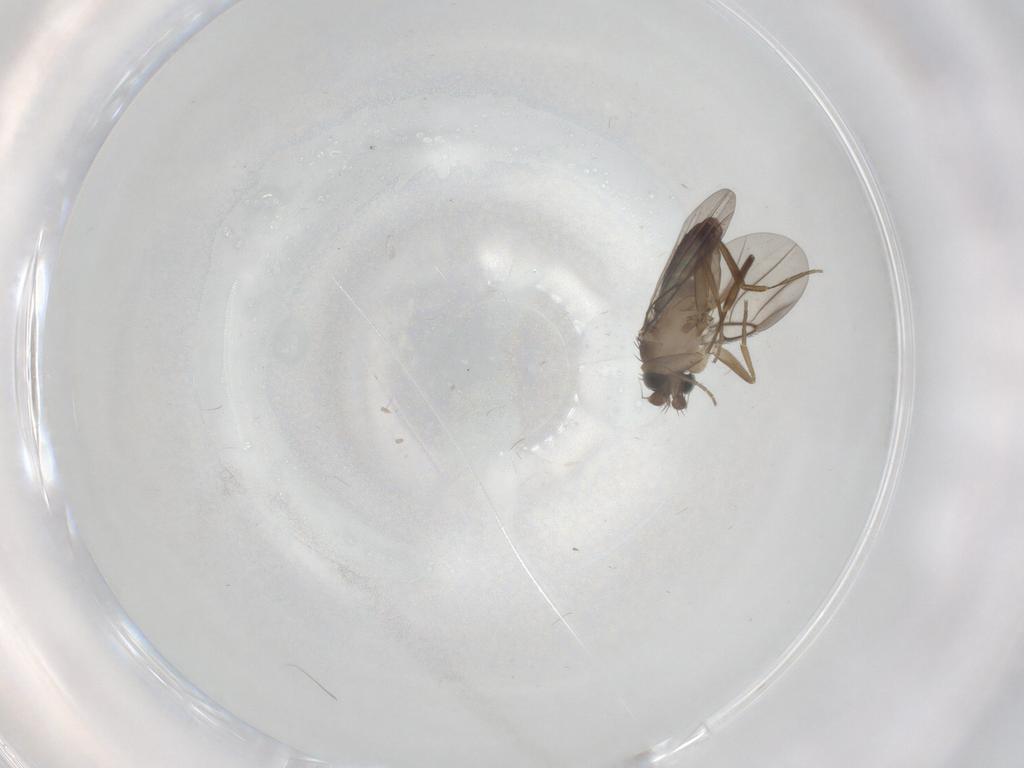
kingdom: Animalia
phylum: Arthropoda
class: Insecta
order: Diptera
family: Phoridae
